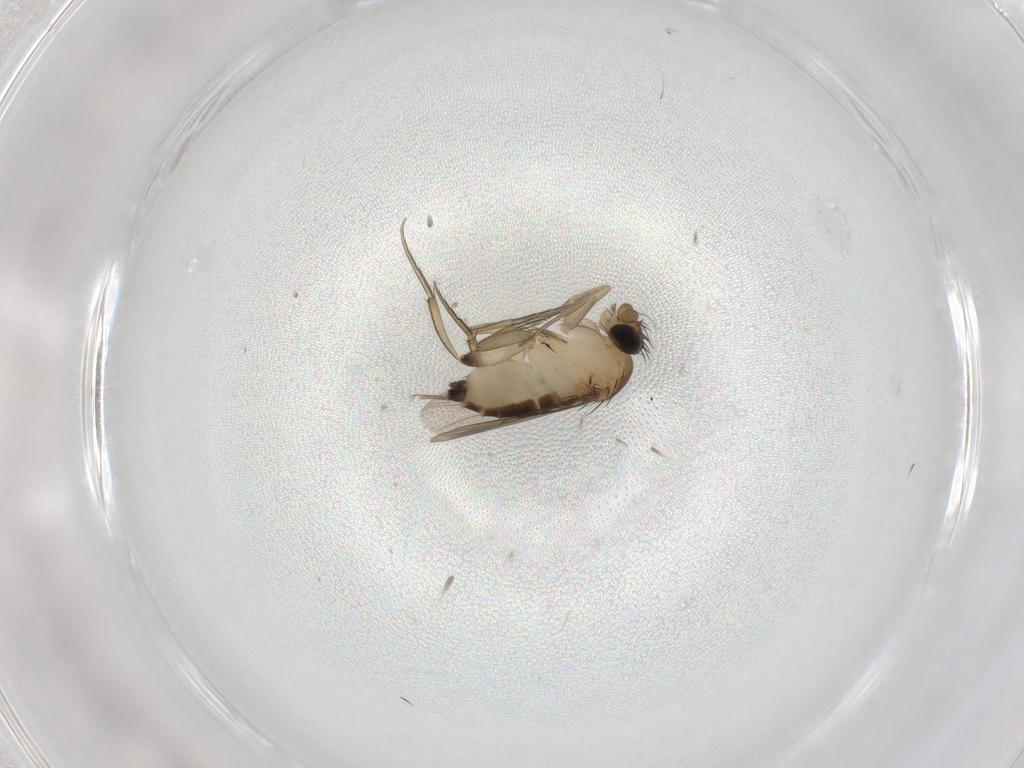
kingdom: Animalia
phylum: Arthropoda
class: Insecta
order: Diptera
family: Phoridae
